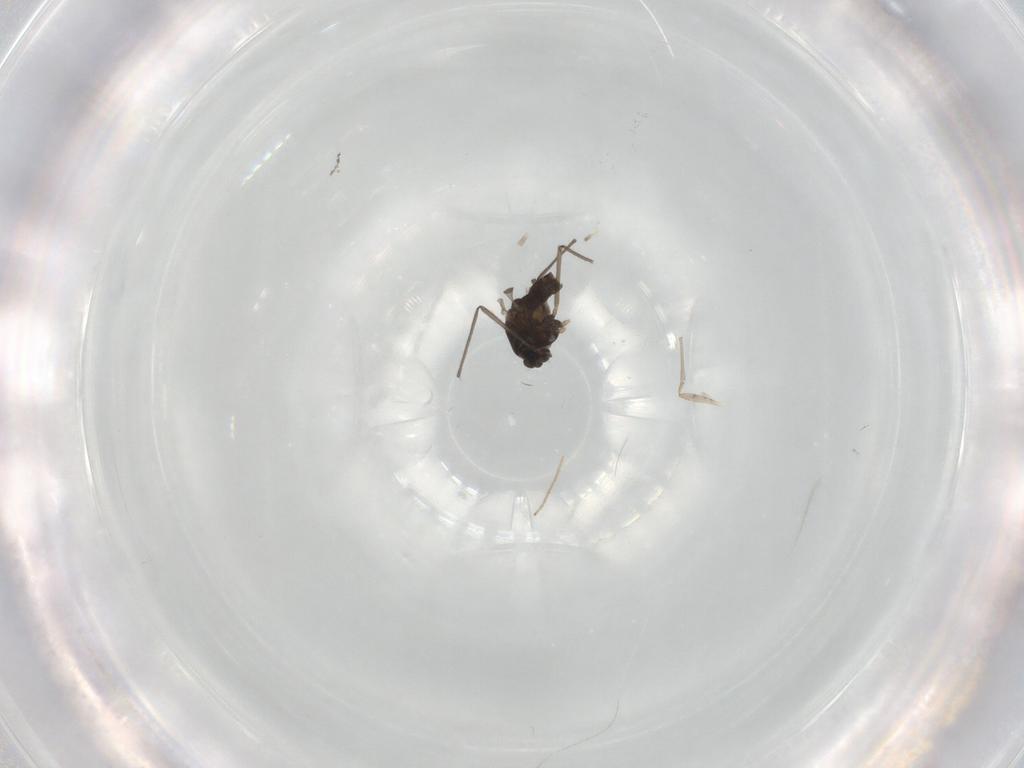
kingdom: Animalia
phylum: Arthropoda
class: Insecta
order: Diptera
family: Chironomidae
